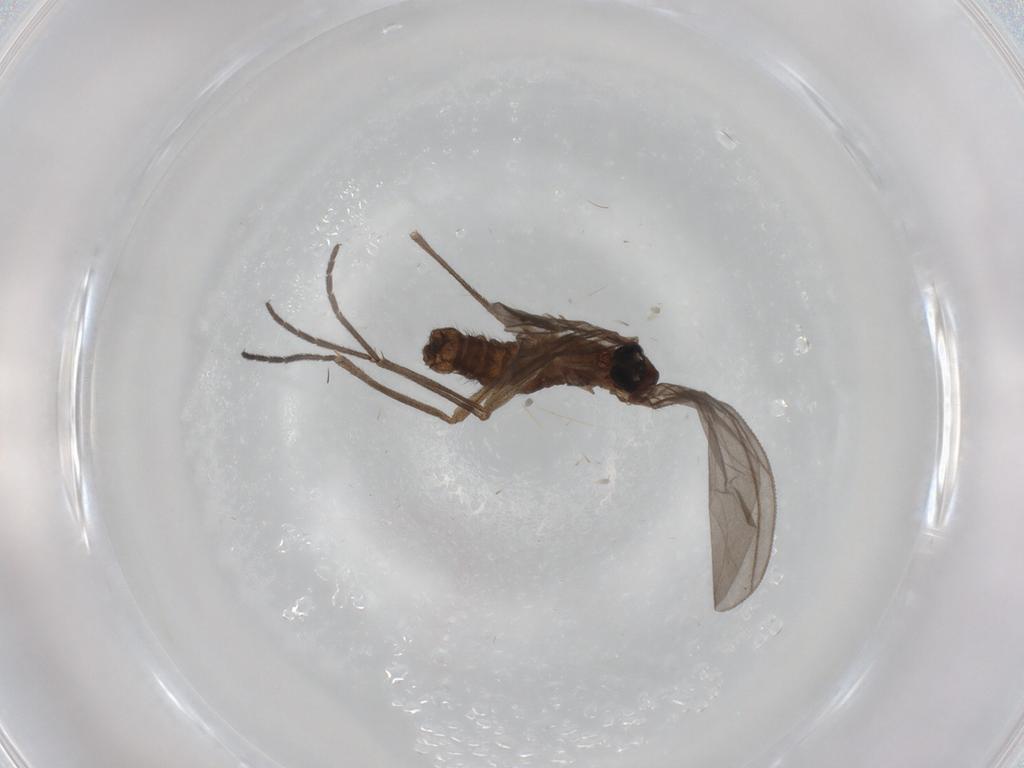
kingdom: Animalia
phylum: Arthropoda
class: Insecta
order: Diptera
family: Sciaridae
